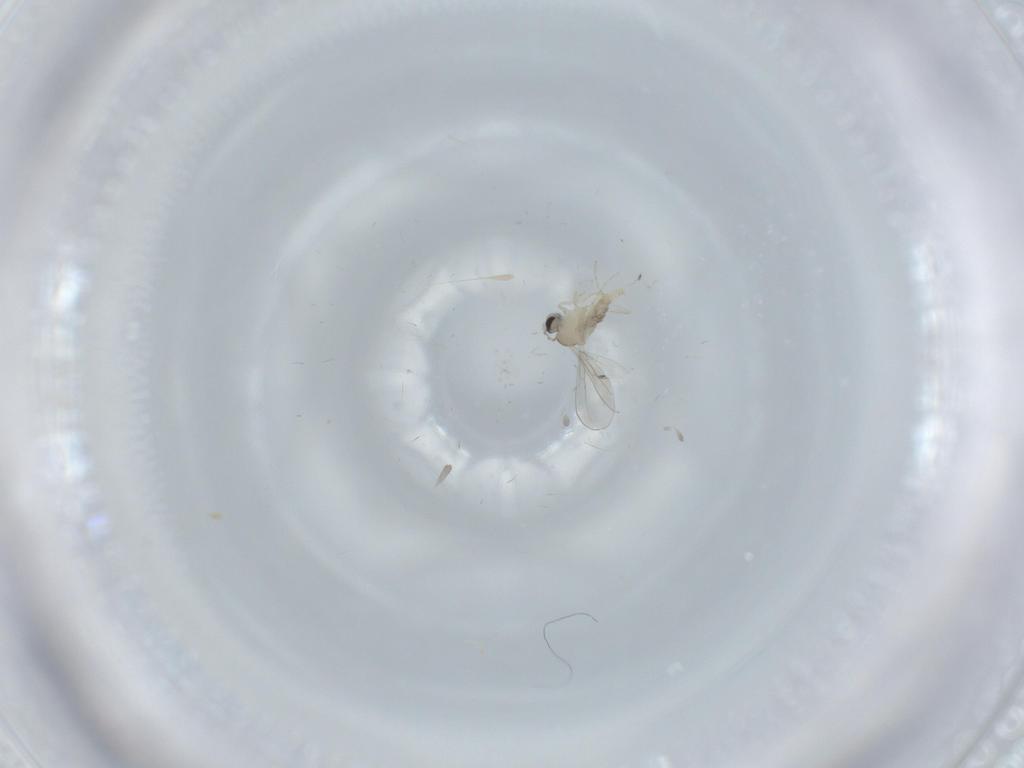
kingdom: Animalia
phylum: Arthropoda
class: Insecta
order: Diptera
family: Cecidomyiidae
